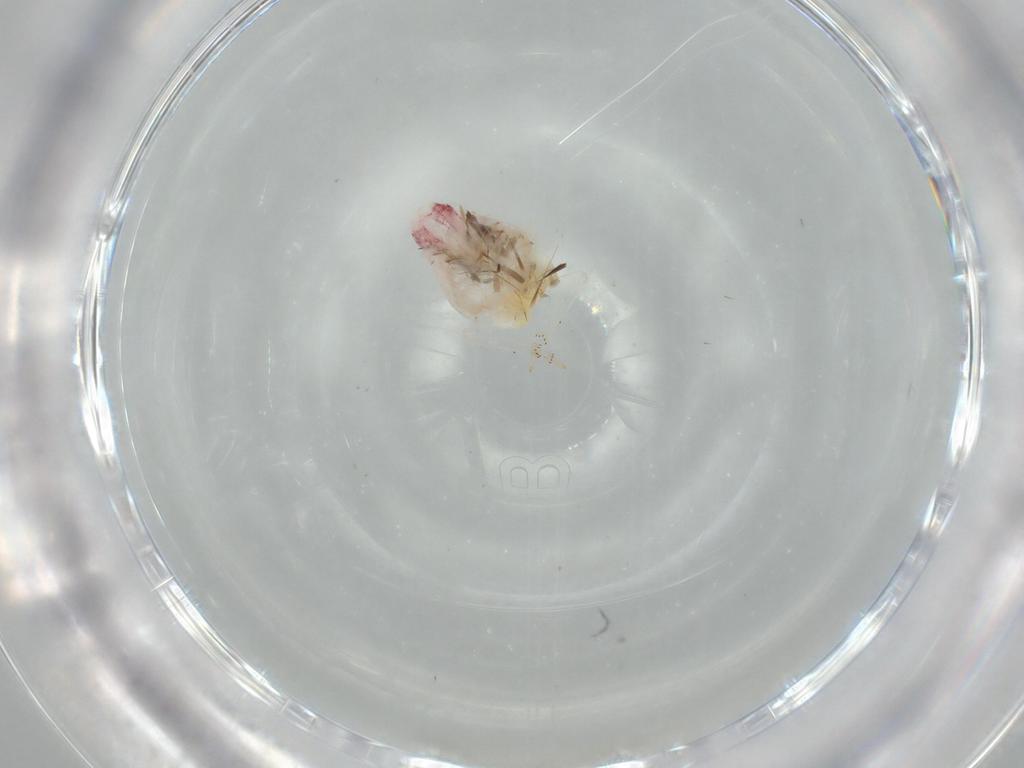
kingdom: Animalia
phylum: Arthropoda
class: Insecta
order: Hemiptera
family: Flatidae
